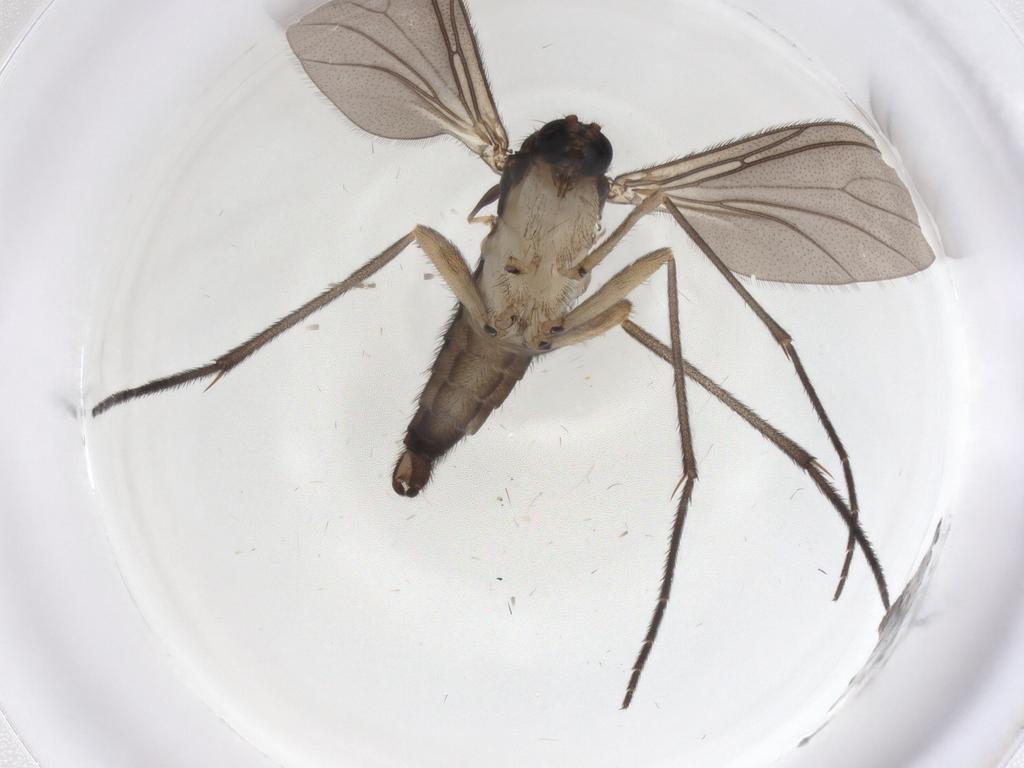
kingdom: Animalia
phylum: Arthropoda
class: Insecta
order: Diptera
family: Sciaridae
